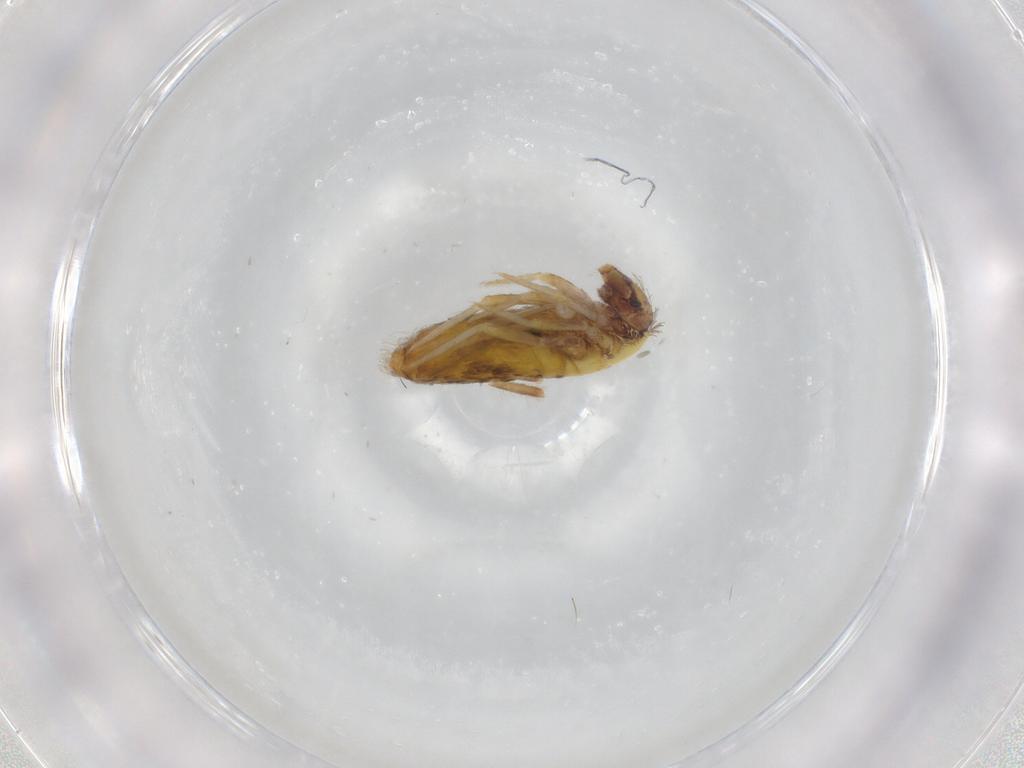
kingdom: Animalia
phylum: Arthropoda
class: Collembola
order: Entomobryomorpha
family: Entomobryidae
